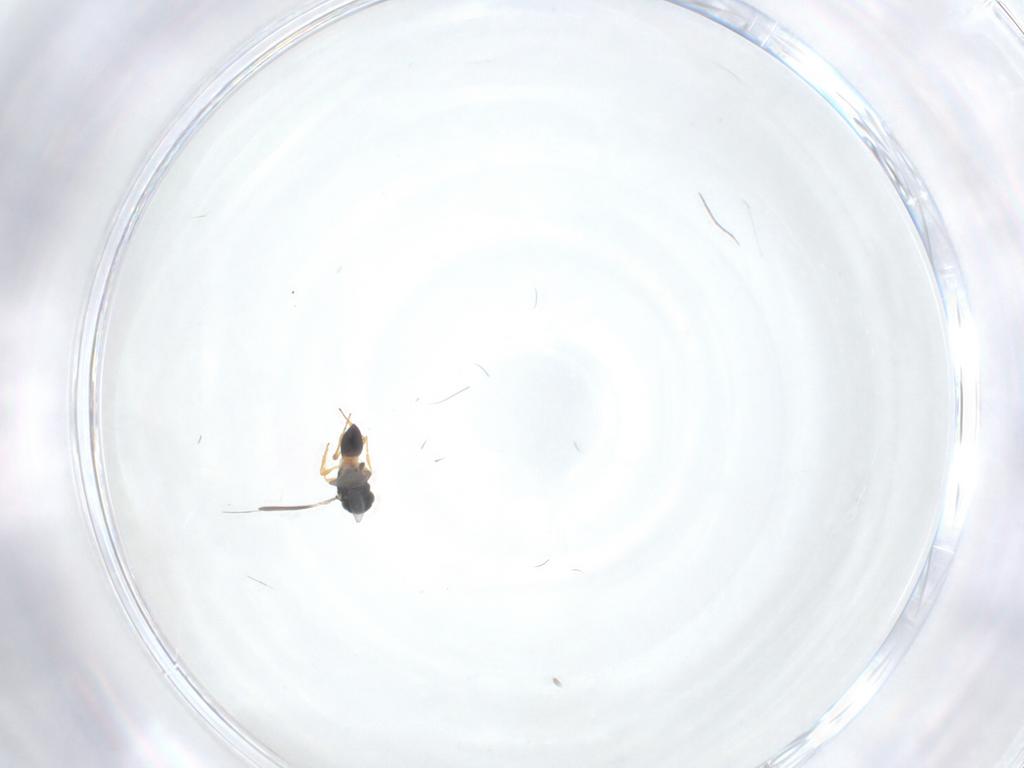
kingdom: Animalia
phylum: Arthropoda
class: Insecta
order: Hymenoptera
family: Platygastridae
